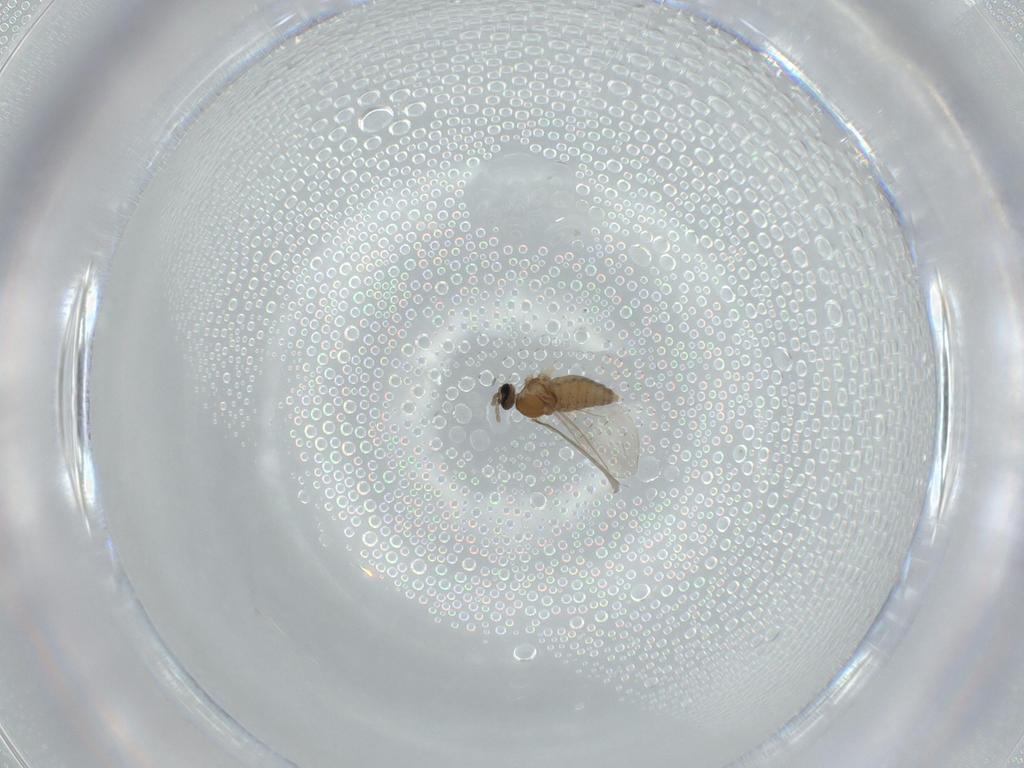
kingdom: Animalia
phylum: Arthropoda
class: Insecta
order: Diptera
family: Cecidomyiidae
